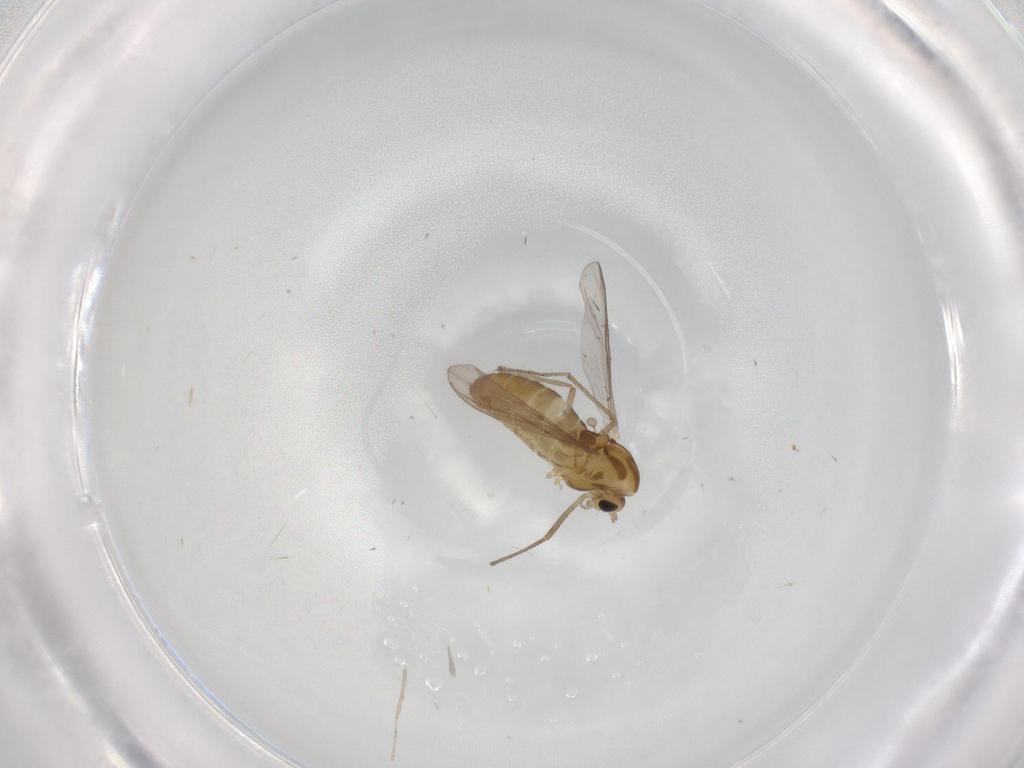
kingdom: Animalia
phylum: Arthropoda
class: Insecta
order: Diptera
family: Chironomidae
